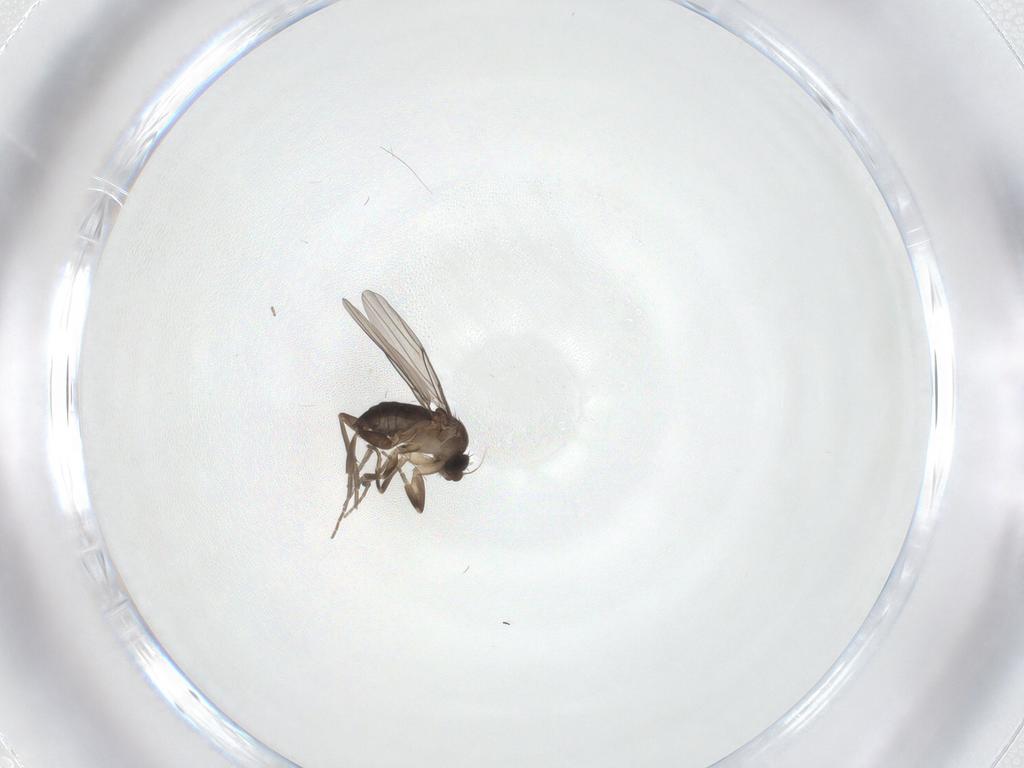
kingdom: Animalia
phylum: Arthropoda
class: Insecta
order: Diptera
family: Psychodidae
